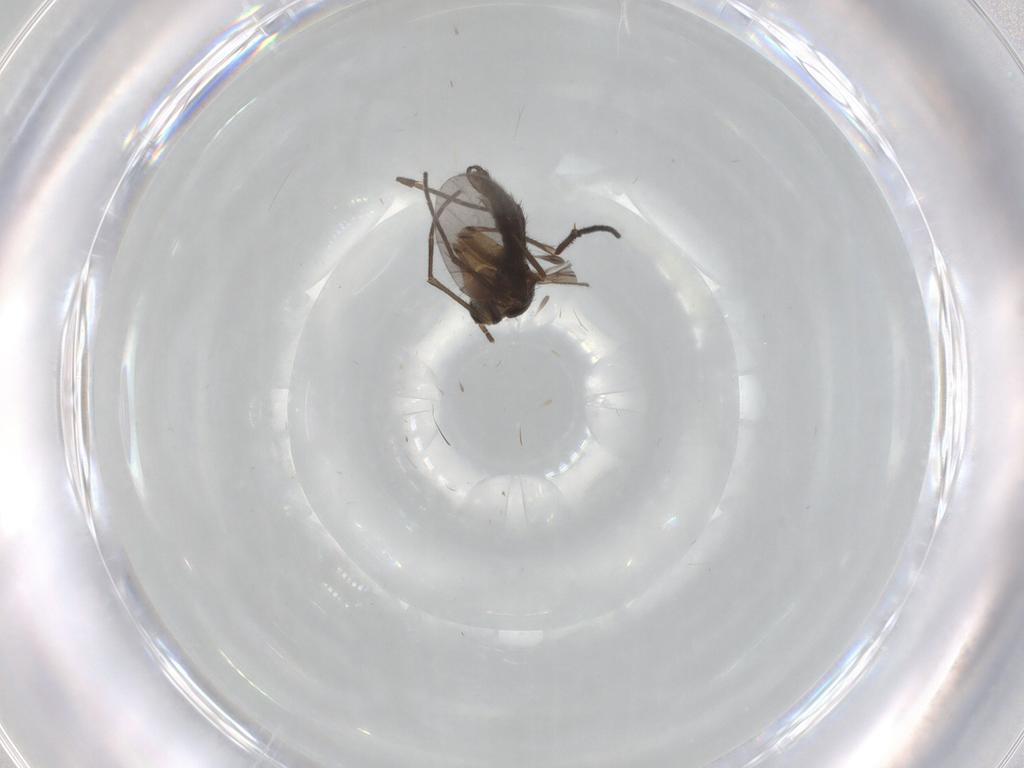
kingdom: Animalia
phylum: Arthropoda
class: Insecta
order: Diptera
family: Sciaridae
